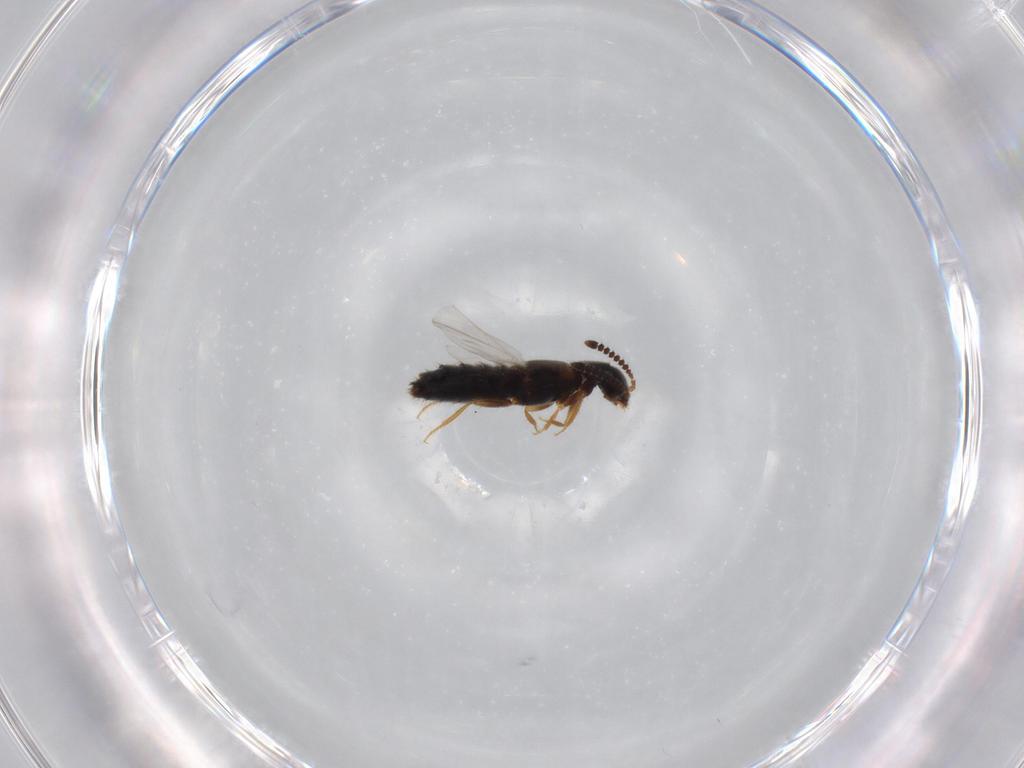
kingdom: Animalia
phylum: Arthropoda
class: Insecta
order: Coleoptera
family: Staphylinidae
